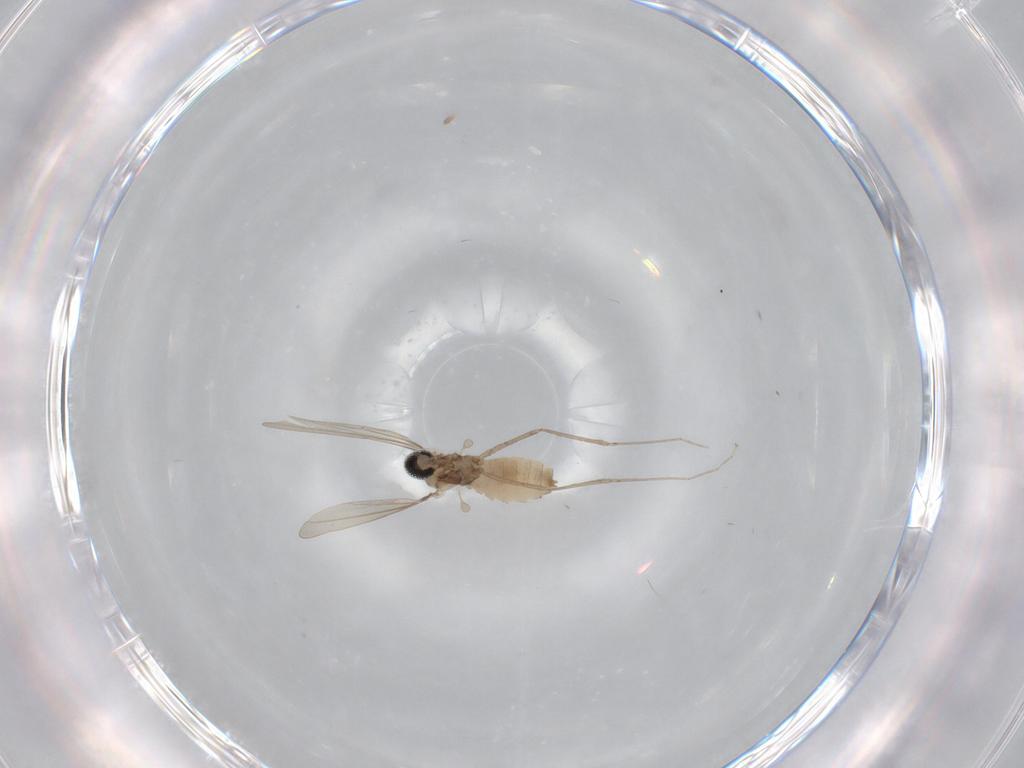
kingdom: Animalia
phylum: Arthropoda
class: Insecta
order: Diptera
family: Cecidomyiidae
